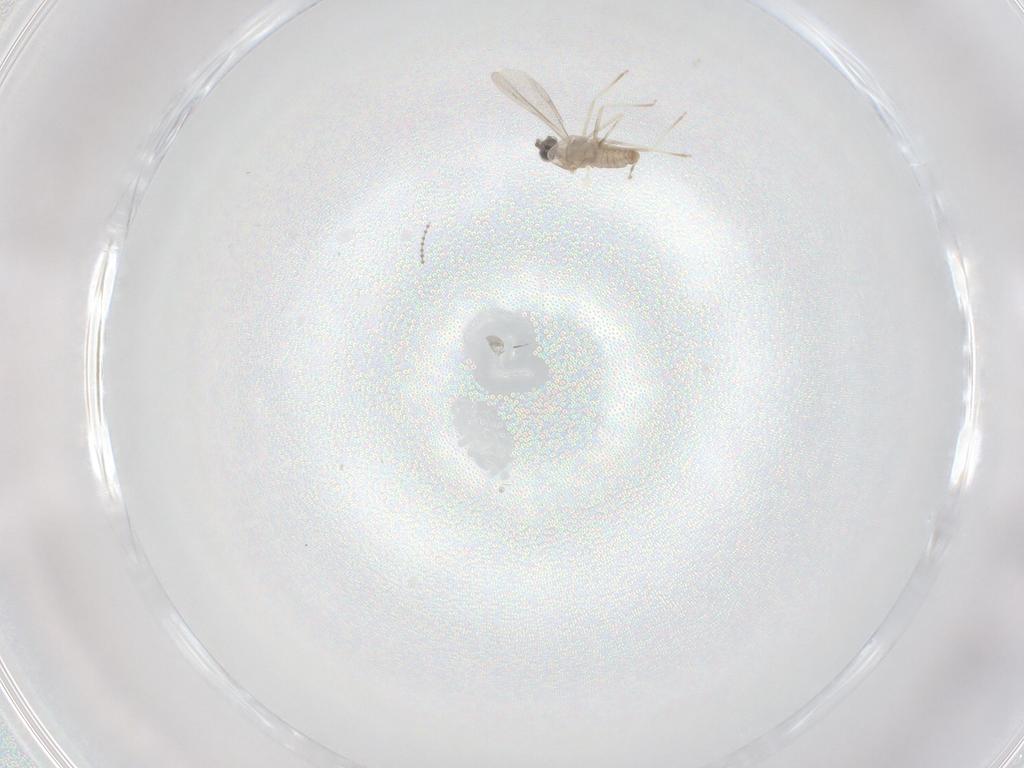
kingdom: Animalia
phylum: Arthropoda
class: Insecta
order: Diptera
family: Cecidomyiidae
